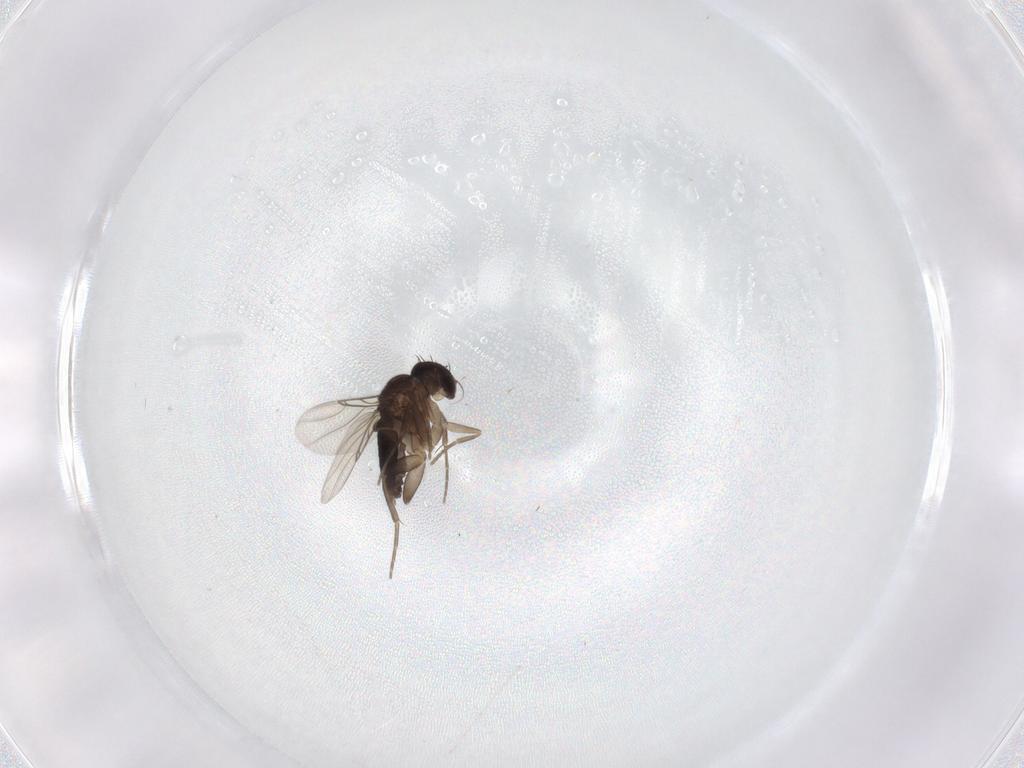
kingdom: Animalia
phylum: Arthropoda
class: Insecta
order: Diptera
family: Phoridae
